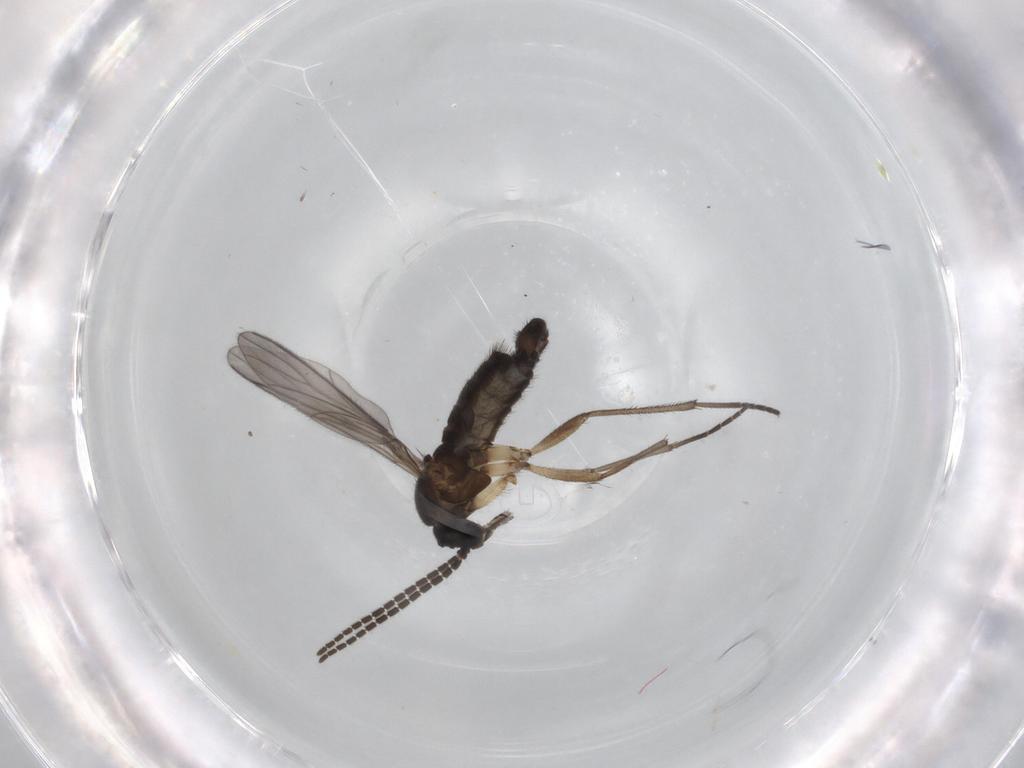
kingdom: Animalia
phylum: Arthropoda
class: Insecta
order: Diptera
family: Sciaridae
